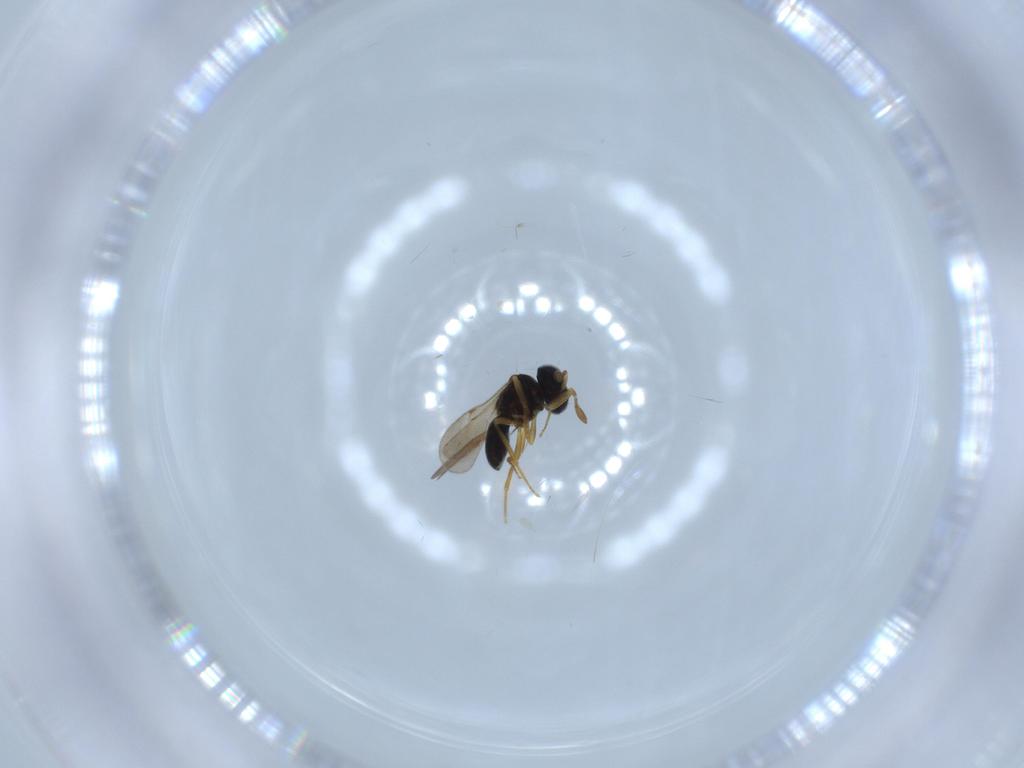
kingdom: Animalia
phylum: Arthropoda
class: Insecta
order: Hymenoptera
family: Scelionidae
